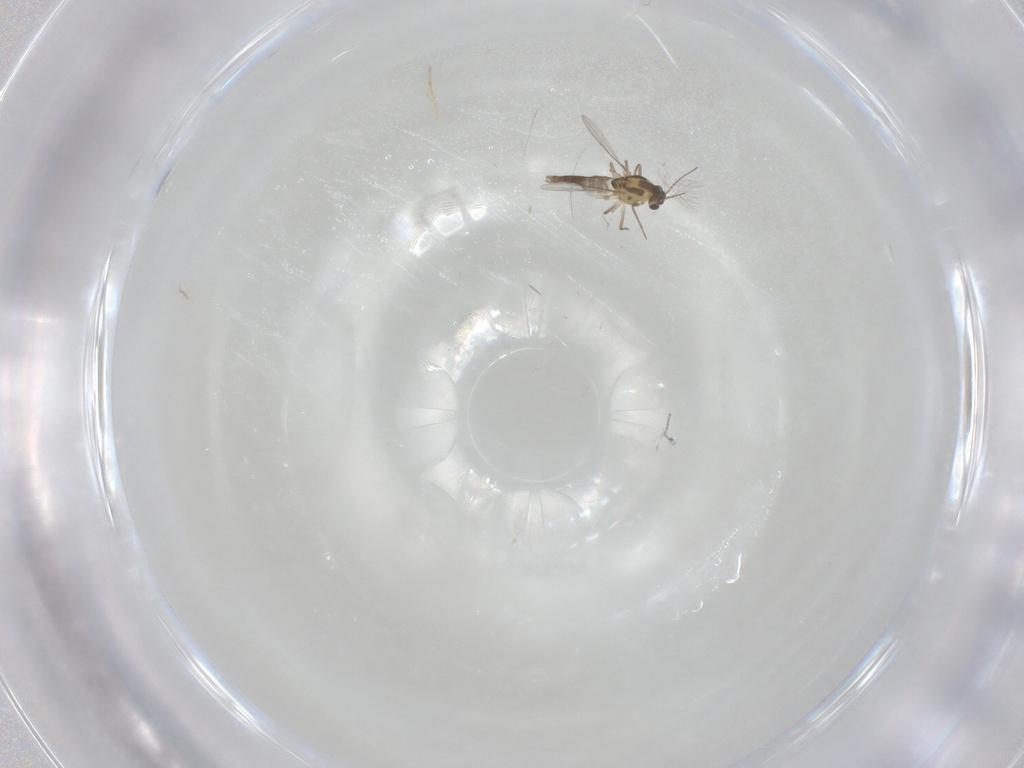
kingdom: Animalia
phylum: Arthropoda
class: Insecta
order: Diptera
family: Chironomidae
